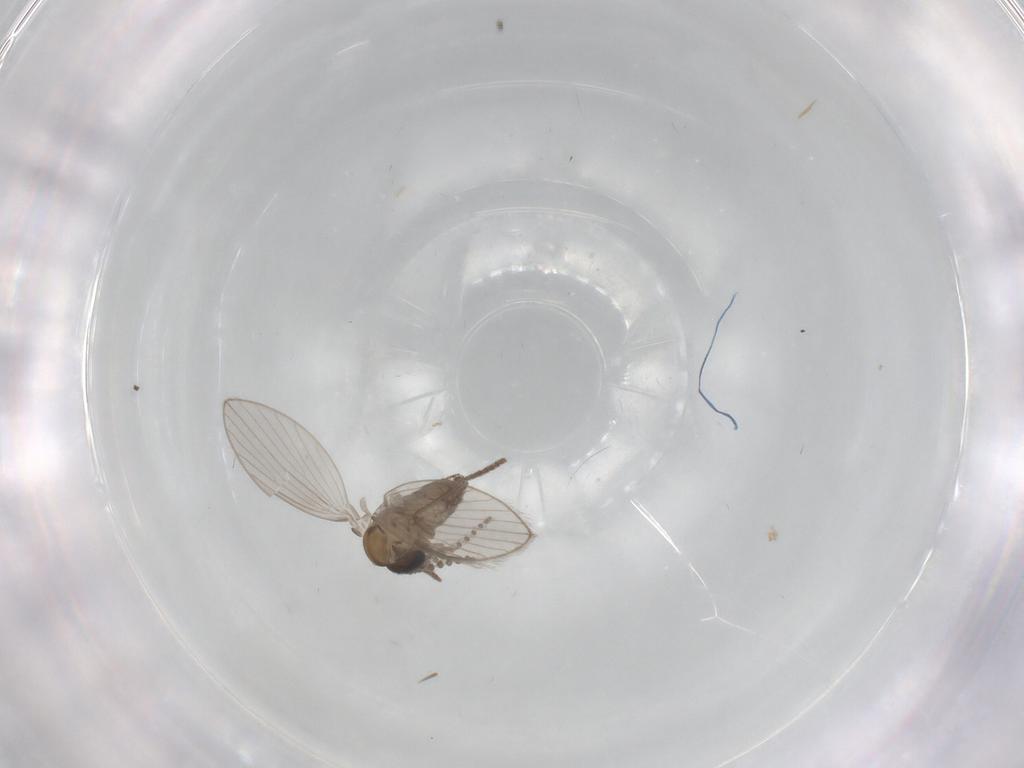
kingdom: Animalia
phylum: Arthropoda
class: Insecta
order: Diptera
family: Psychodidae
